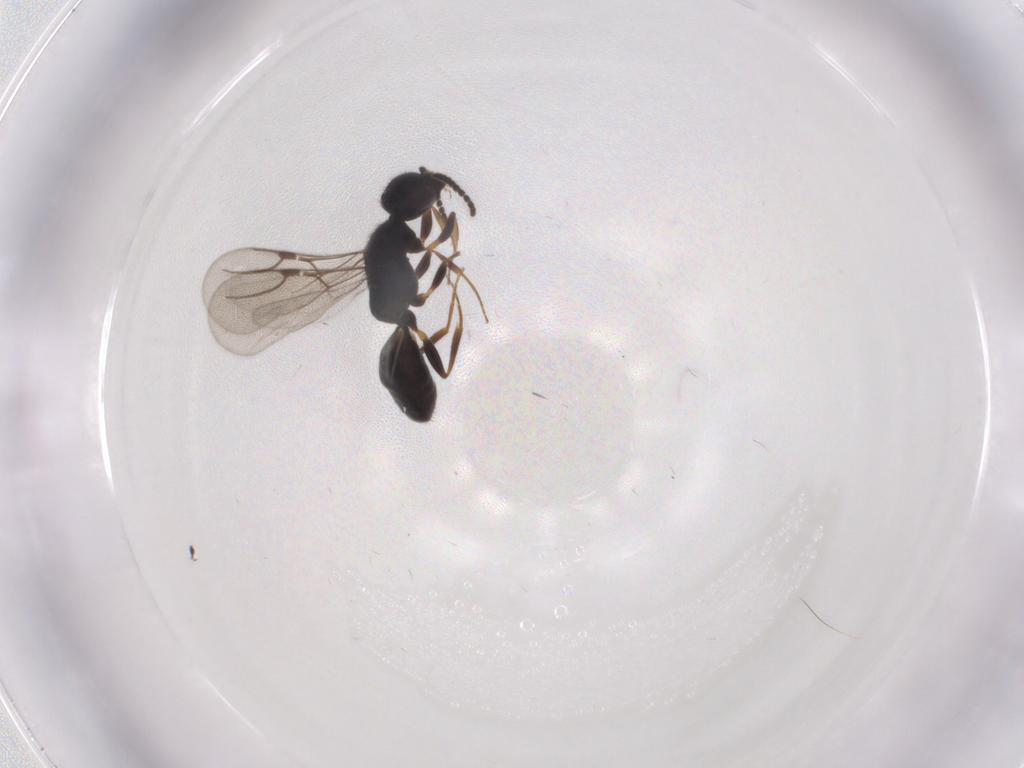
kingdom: Animalia
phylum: Arthropoda
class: Insecta
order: Hymenoptera
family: Bethylidae
